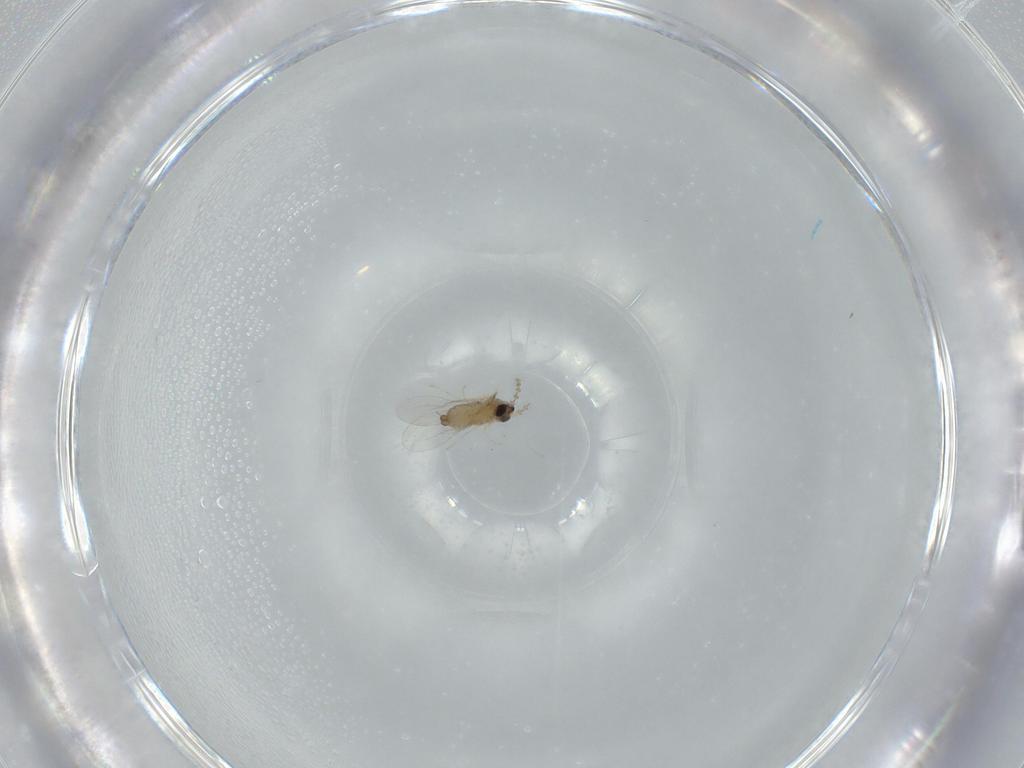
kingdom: Animalia
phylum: Arthropoda
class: Insecta
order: Diptera
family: Cecidomyiidae
